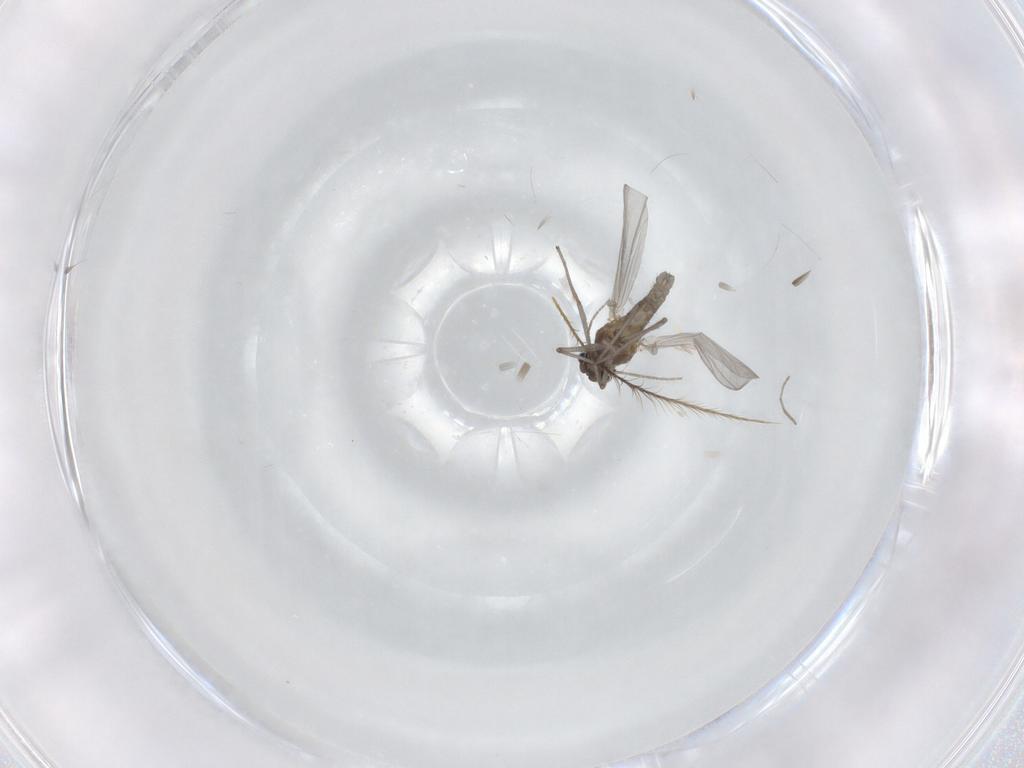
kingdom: Animalia
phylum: Arthropoda
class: Insecta
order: Diptera
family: Chironomidae
